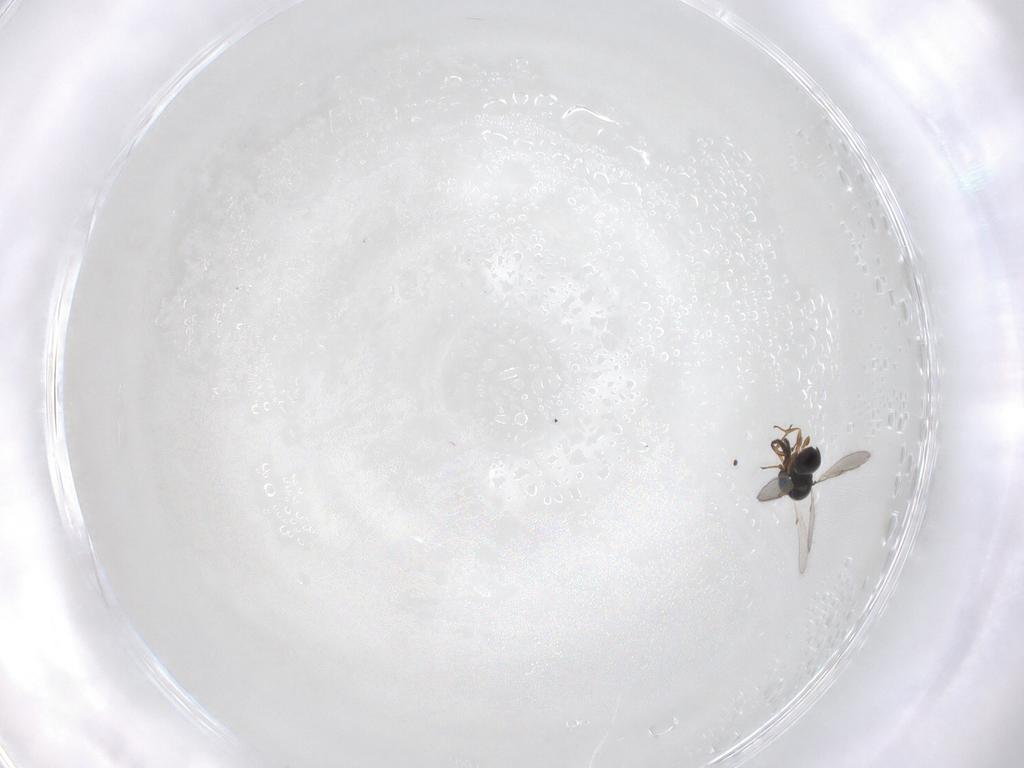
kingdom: Animalia
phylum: Arthropoda
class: Insecta
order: Hymenoptera
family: Scelionidae
